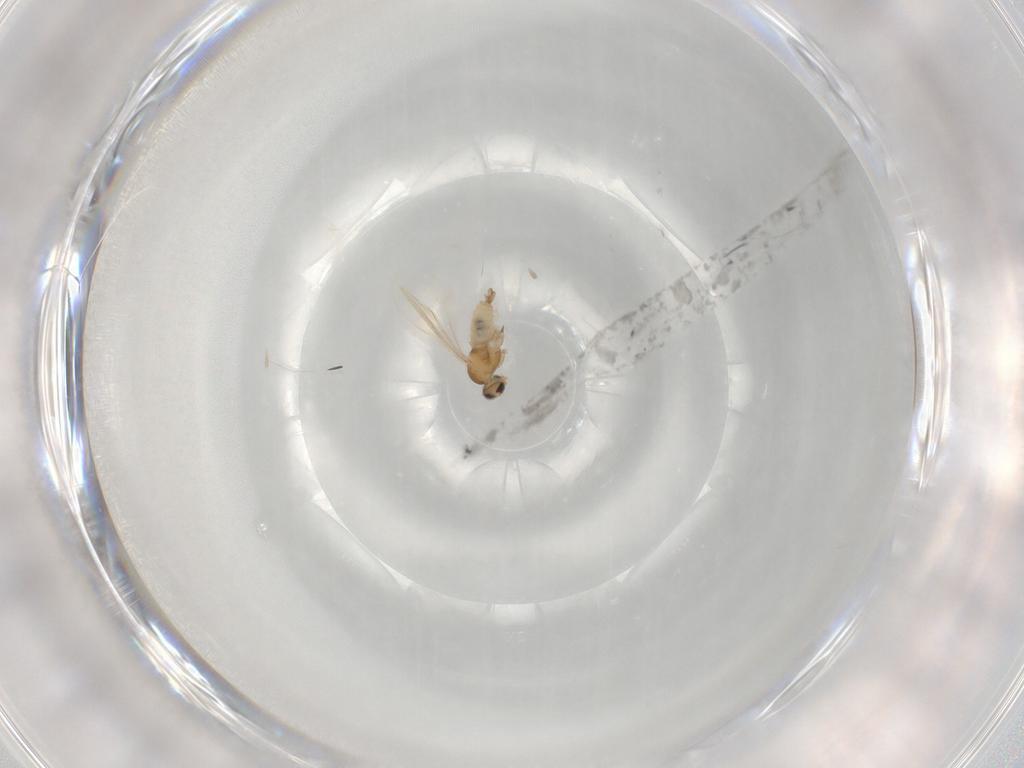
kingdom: Animalia
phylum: Arthropoda
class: Insecta
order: Diptera
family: Cecidomyiidae
